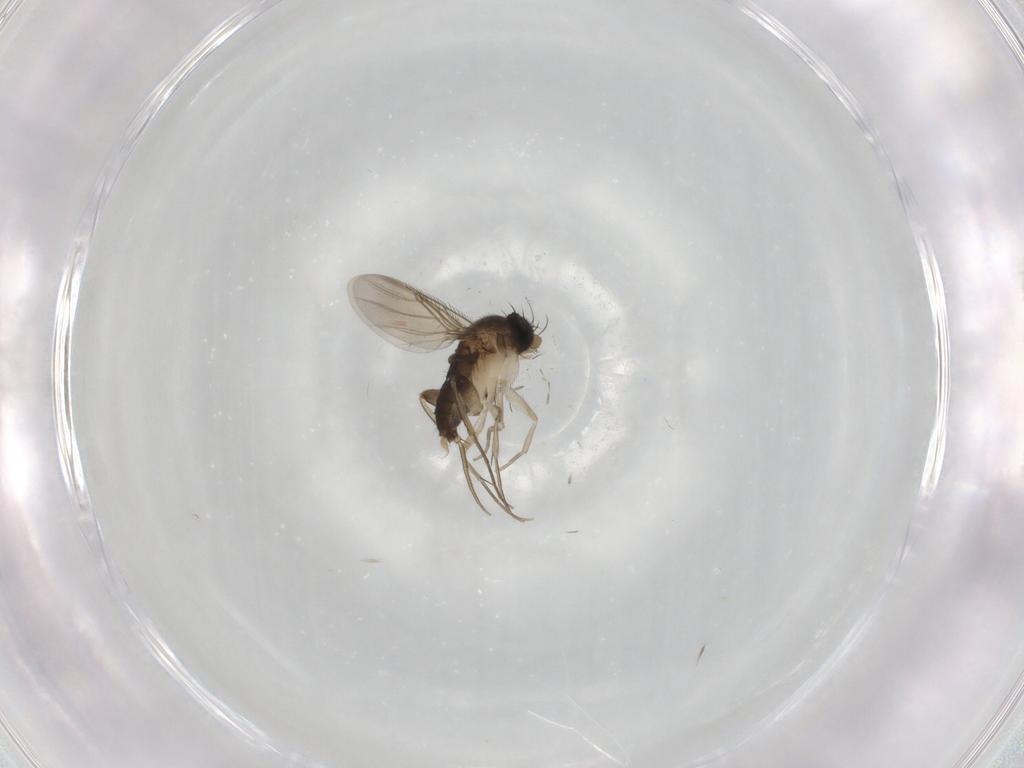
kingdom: Animalia
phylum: Arthropoda
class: Insecta
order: Diptera
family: Phoridae
